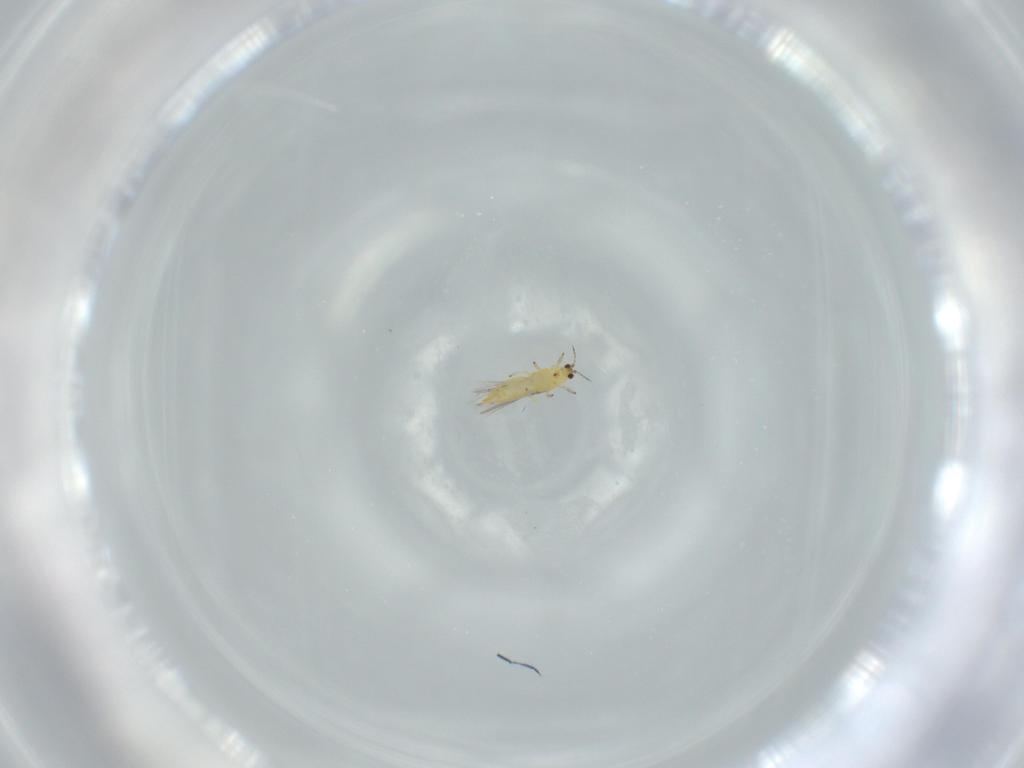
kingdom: Animalia
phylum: Arthropoda
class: Insecta
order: Thysanoptera
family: Thripidae
